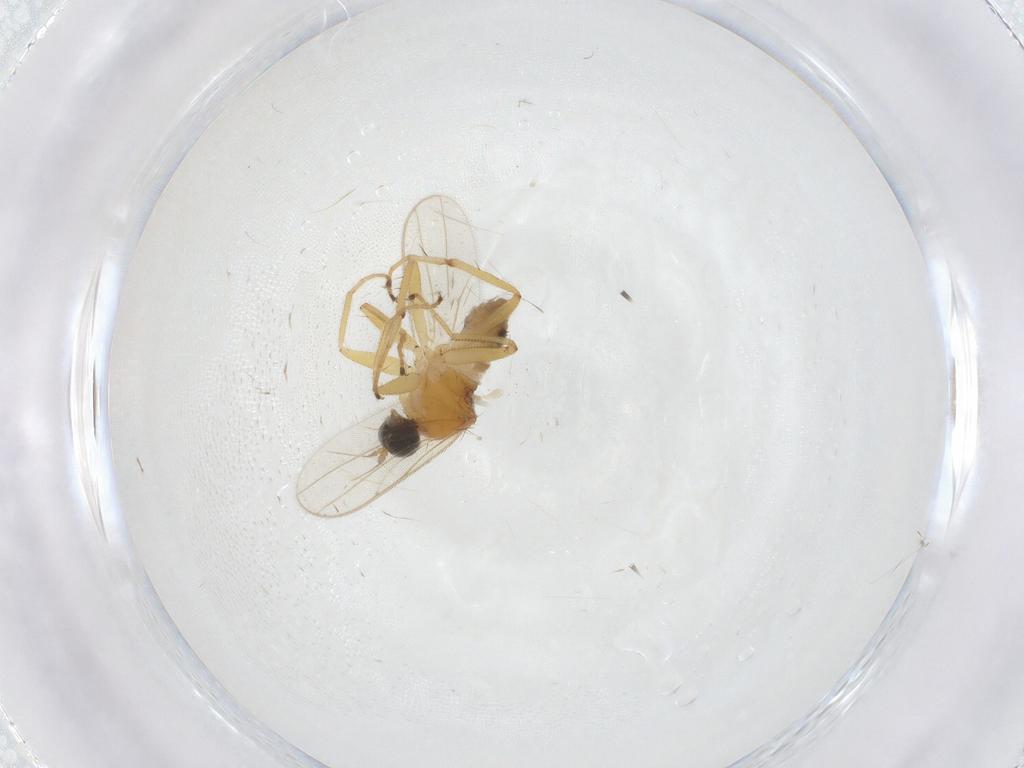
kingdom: Animalia
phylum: Arthropoda
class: Insecta
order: Diptera
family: Hybotidae
